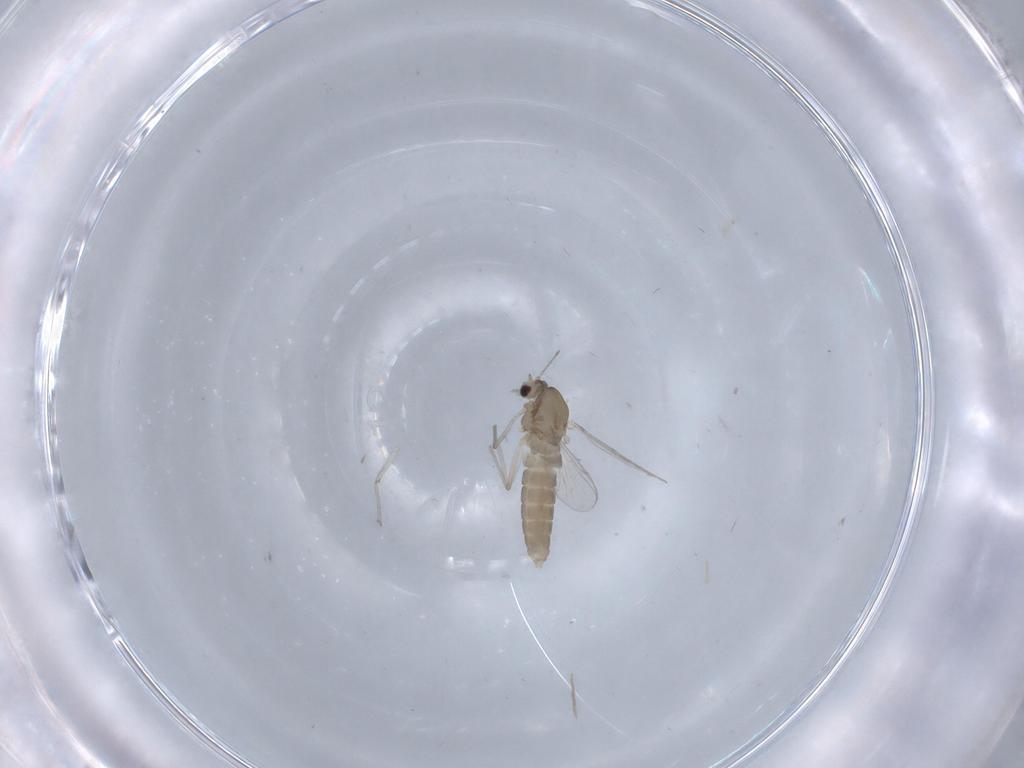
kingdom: Animalia
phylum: Arthropoda
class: Insecta
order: Diptera
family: Chironomidae
